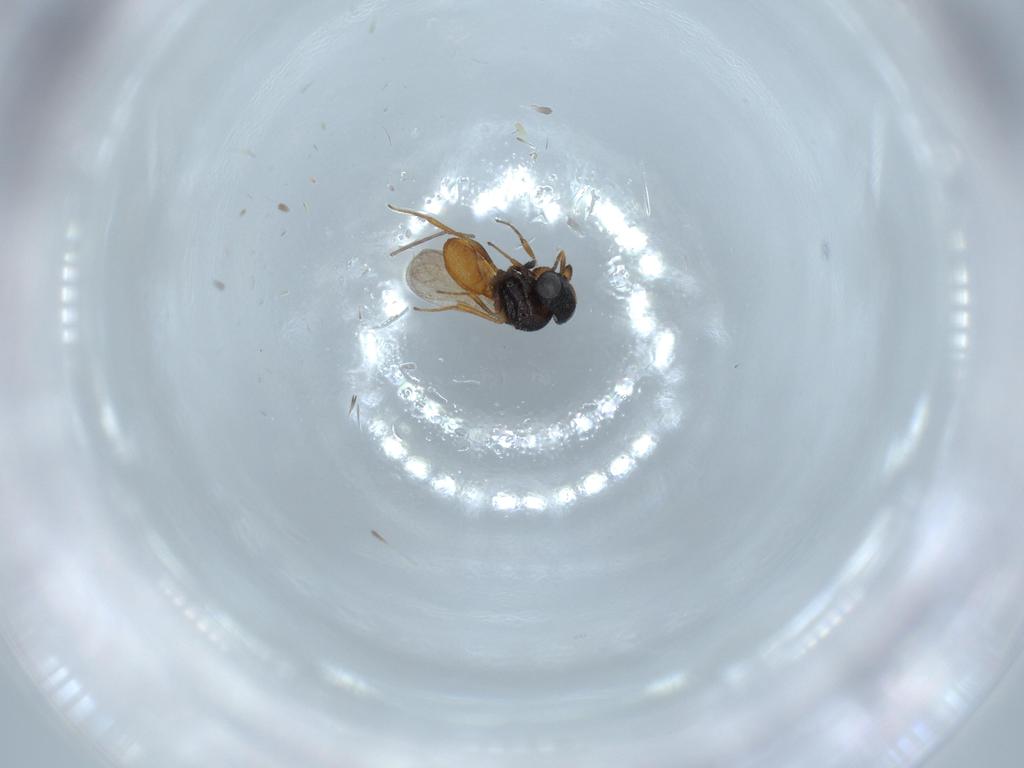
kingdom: Animalia
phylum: Arthropoda
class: Insecta
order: Hymenoptera
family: Scelionidae
